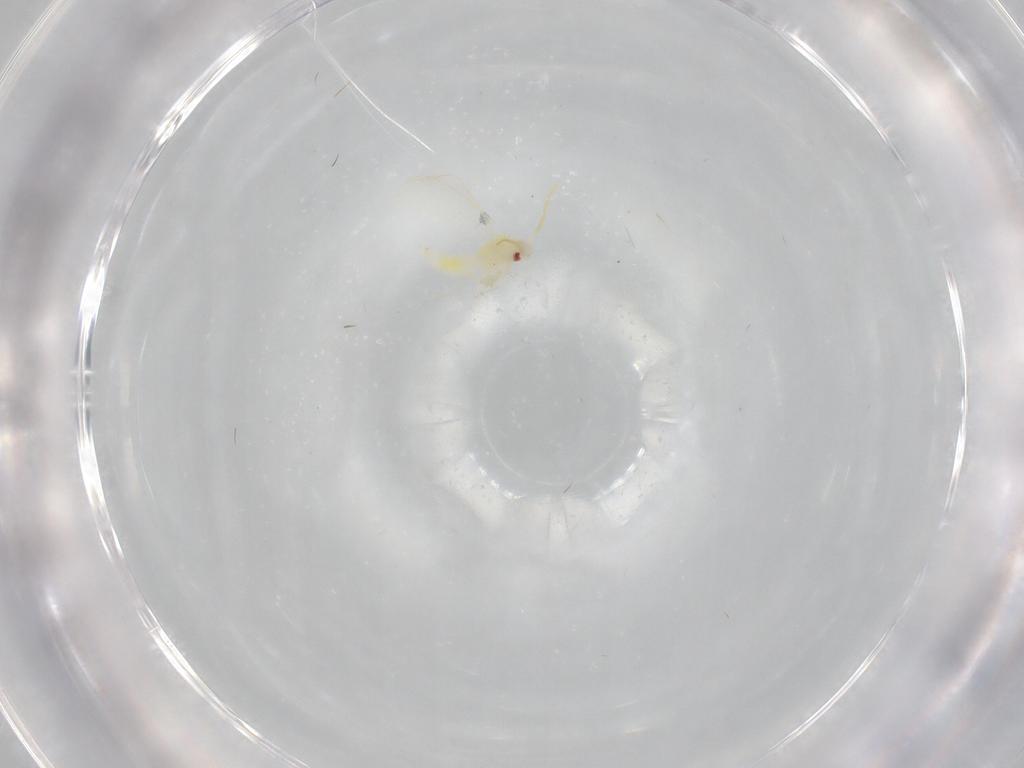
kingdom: Animalia
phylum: Arthropoda
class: Insecta
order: Hemiptera
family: Aleyrodidae
